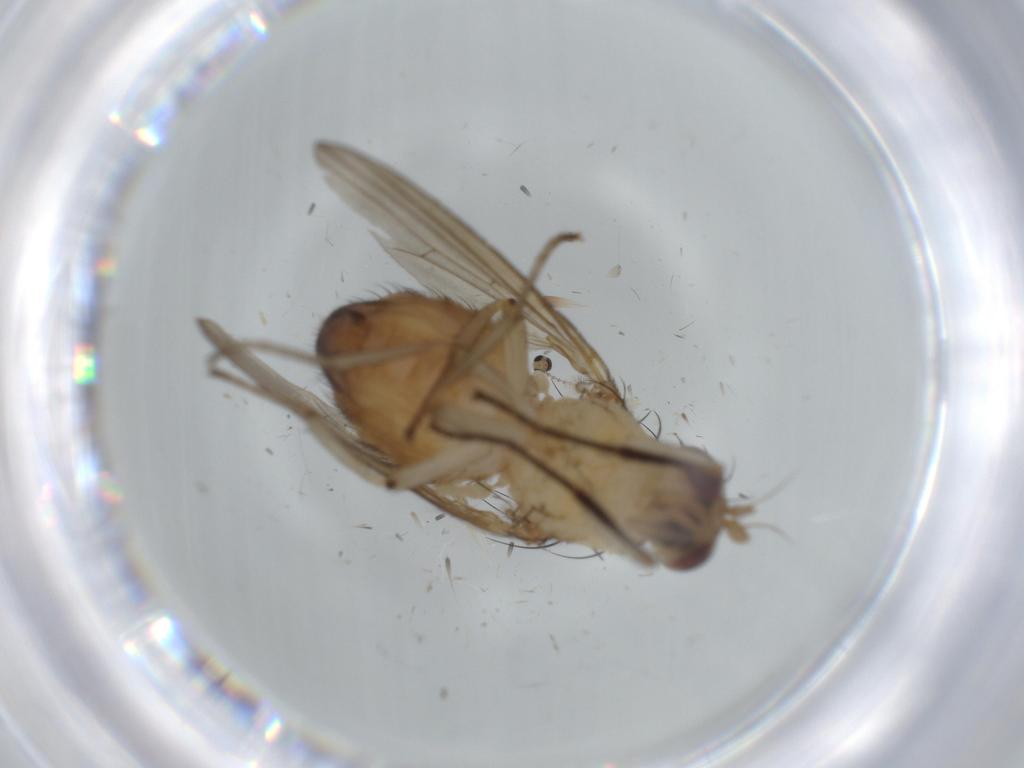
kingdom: Animalia
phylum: Arthropoda
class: Insecta
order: Diptera
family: Cecidomyiidae
